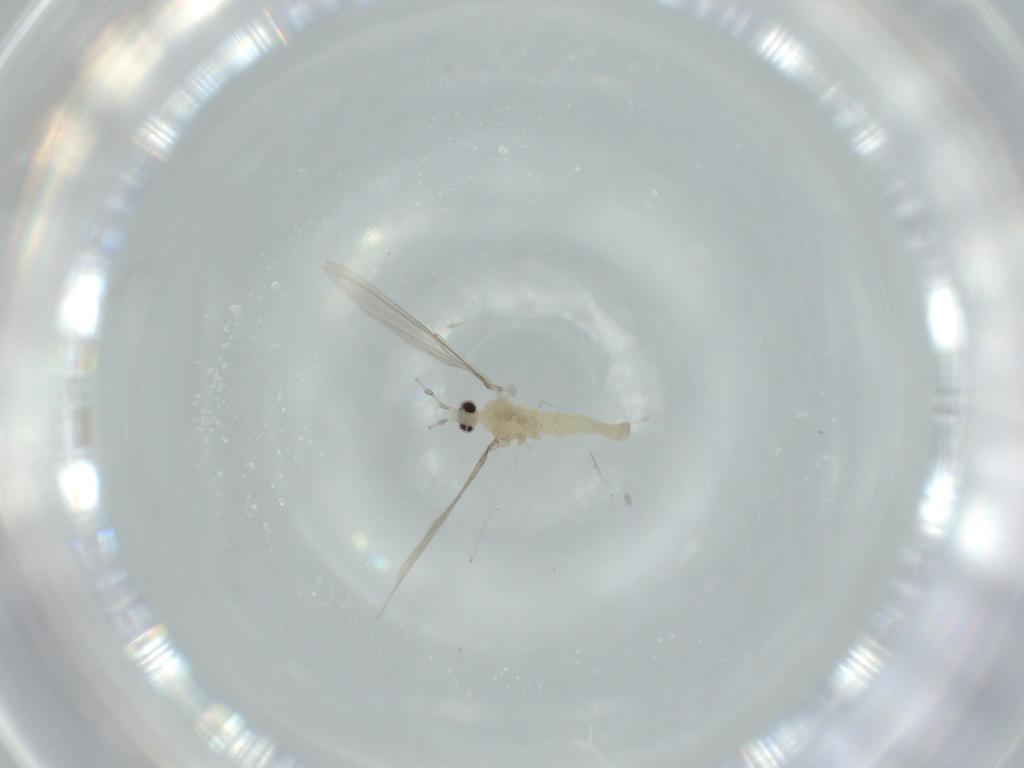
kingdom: Animalia
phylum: Arthropoda
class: Insecta
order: Diptera
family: Cecidomyiidae
